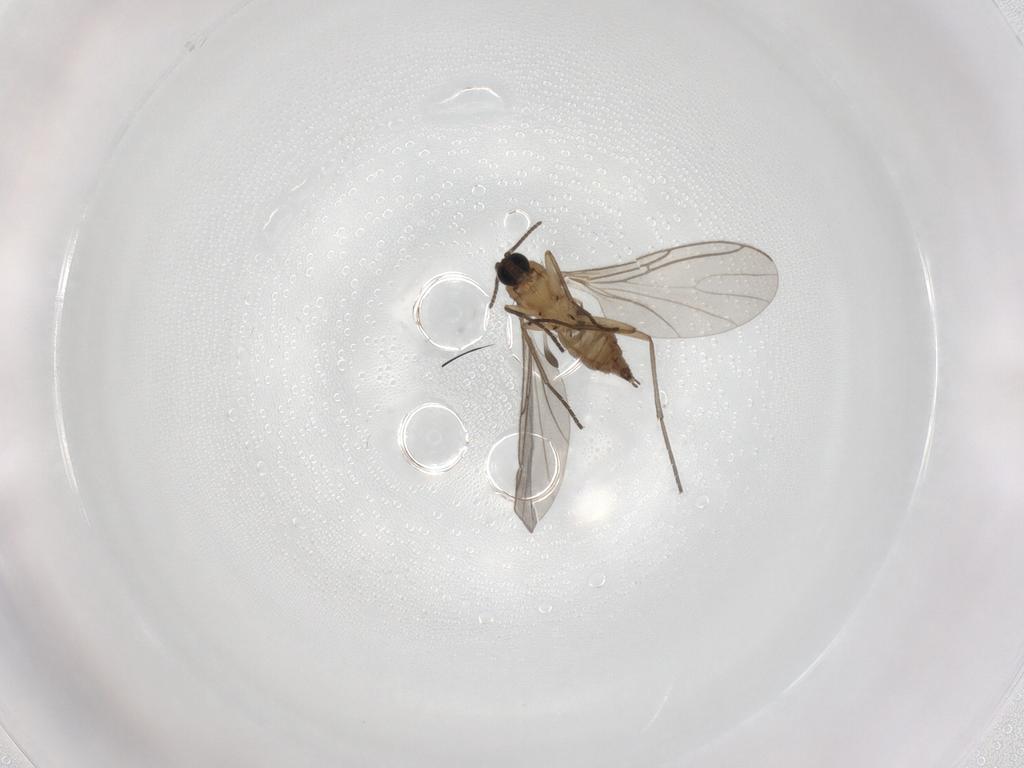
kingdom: Animalia
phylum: Arthropoda
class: Insecta
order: Diptera
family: Sciaridae
